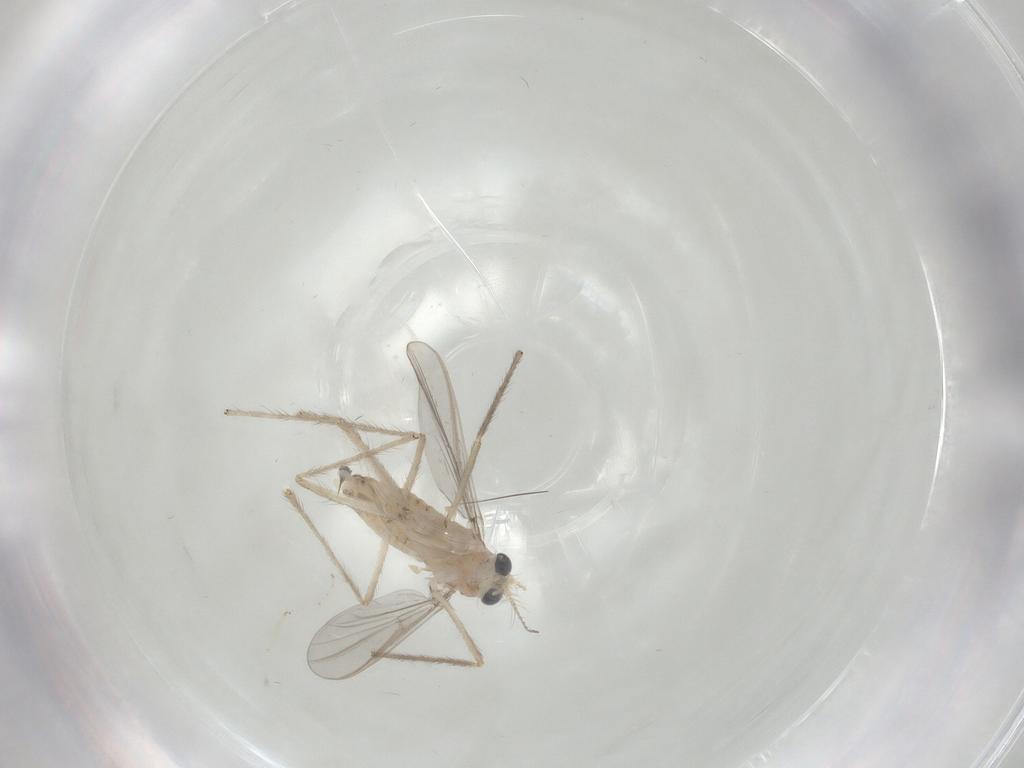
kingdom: Animalia
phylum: Arthropoda
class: Insecta
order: Diptera
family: Chironomidae
